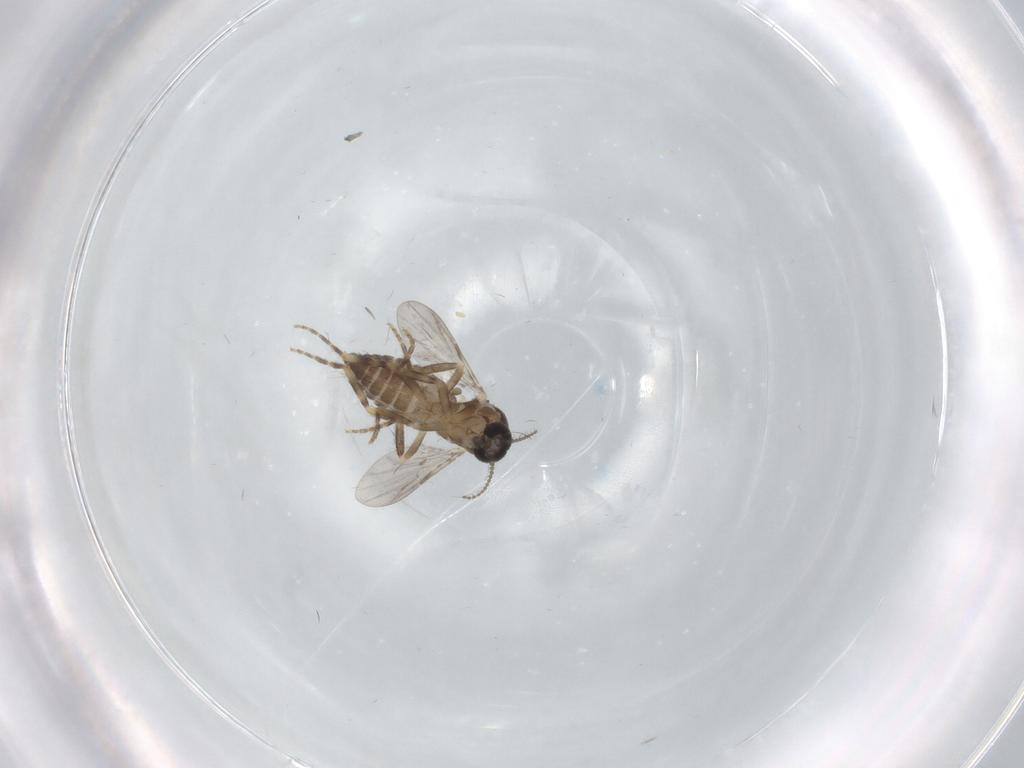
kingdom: Animalia
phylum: Arthropoda
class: Insecta
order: Diptera
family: Ceratopogonidae
